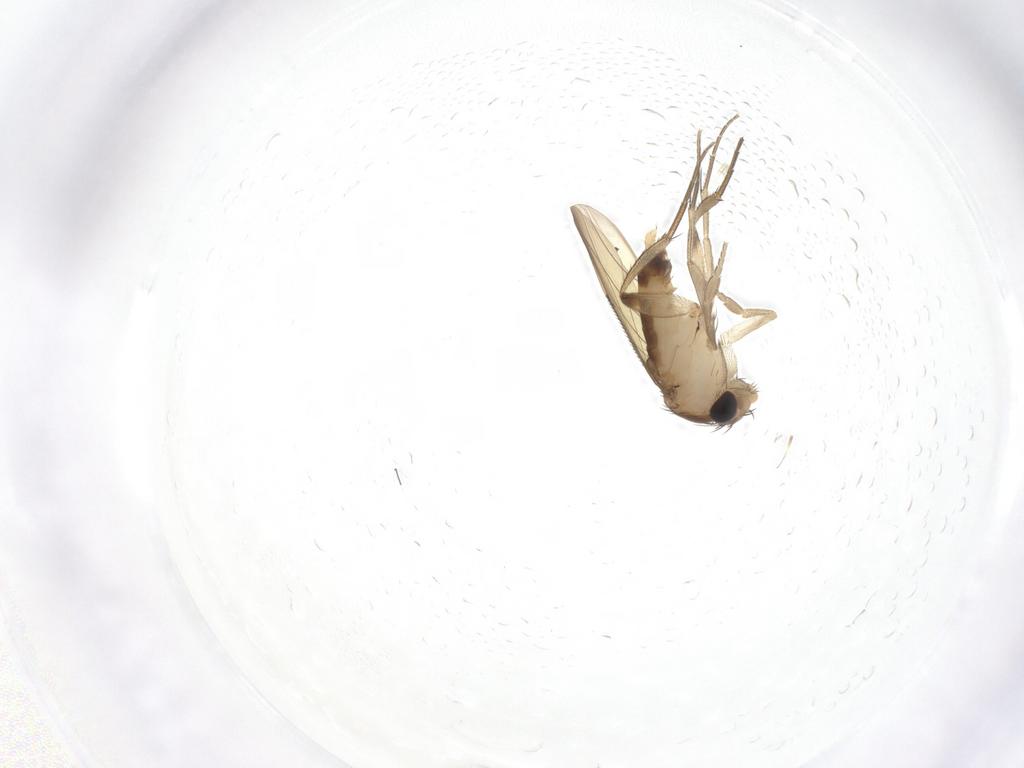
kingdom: Animalia
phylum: Arthropoda
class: Insecta
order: Diptera
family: Phoridae
